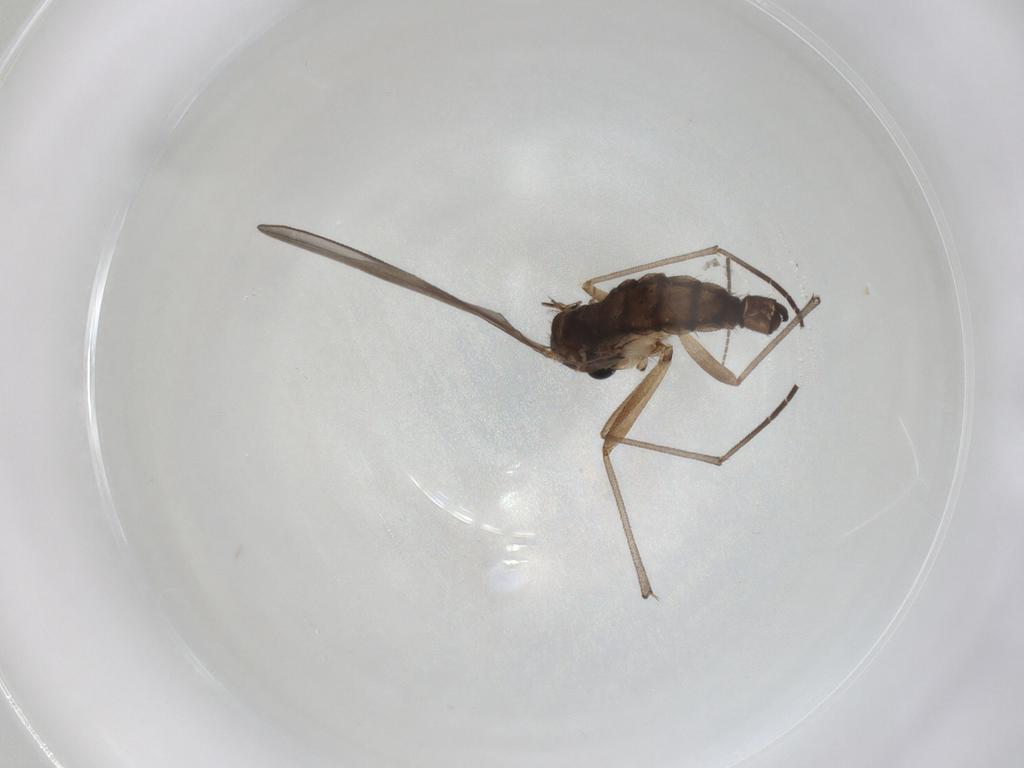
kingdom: Animalia
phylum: Arthropoda
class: Insecta
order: Diptera
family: Sciaridae
